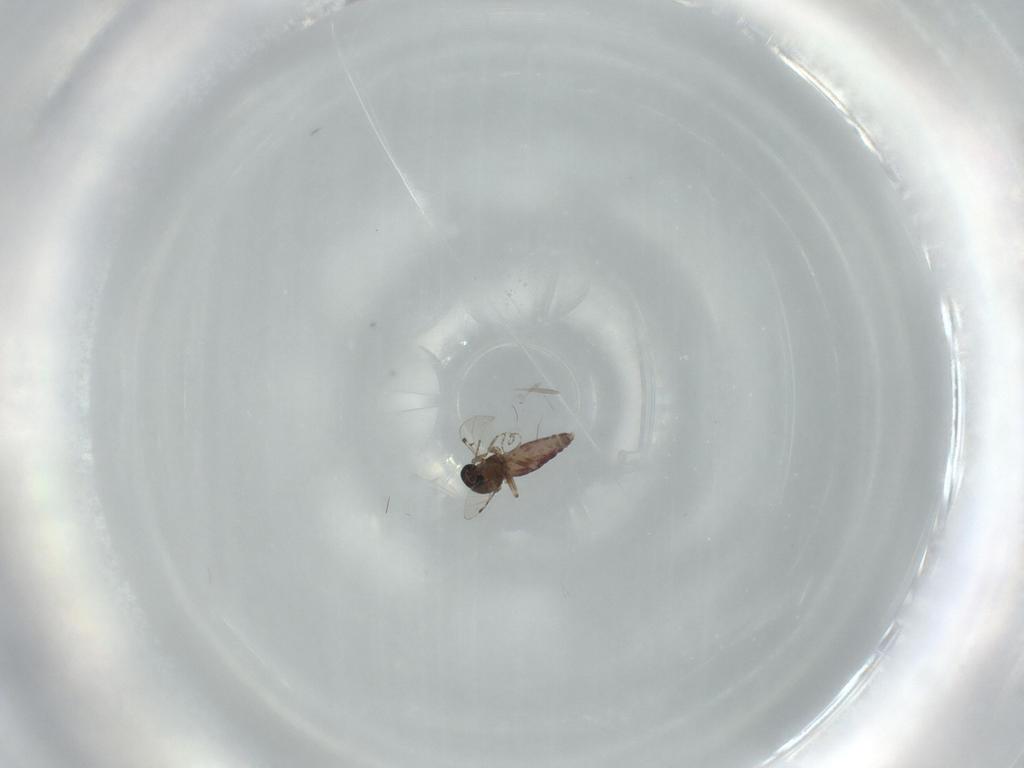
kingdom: Animalia
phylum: Arthropoda
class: Insecta
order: Diptera
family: Ceratopogonidae
